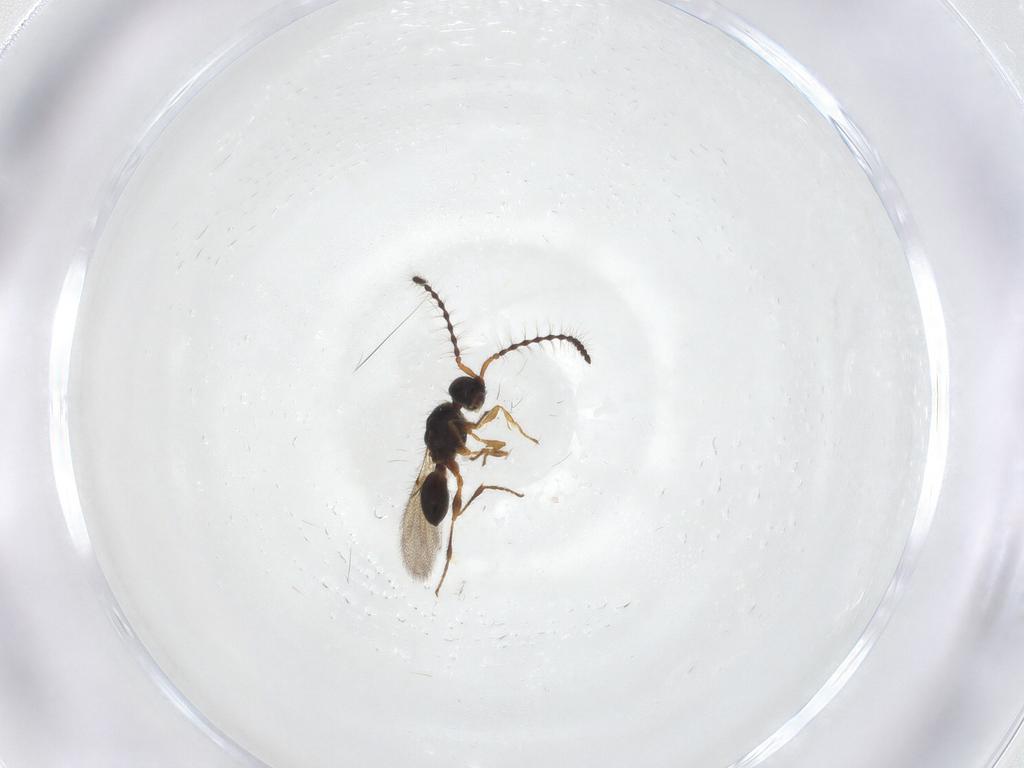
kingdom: Animalia
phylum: Arthropoda
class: Insecta
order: Hymenoptera
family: Diapriidae
